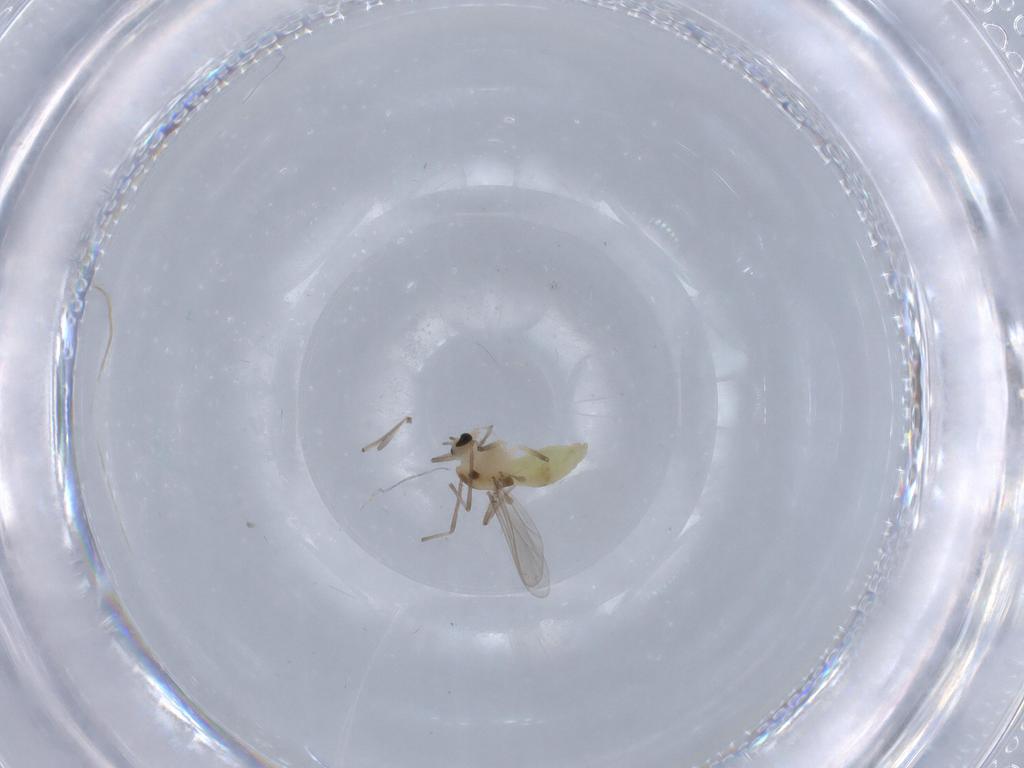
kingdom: Animalia
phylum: Arthropoda
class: Insecta
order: Diptera
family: Chironomidae
